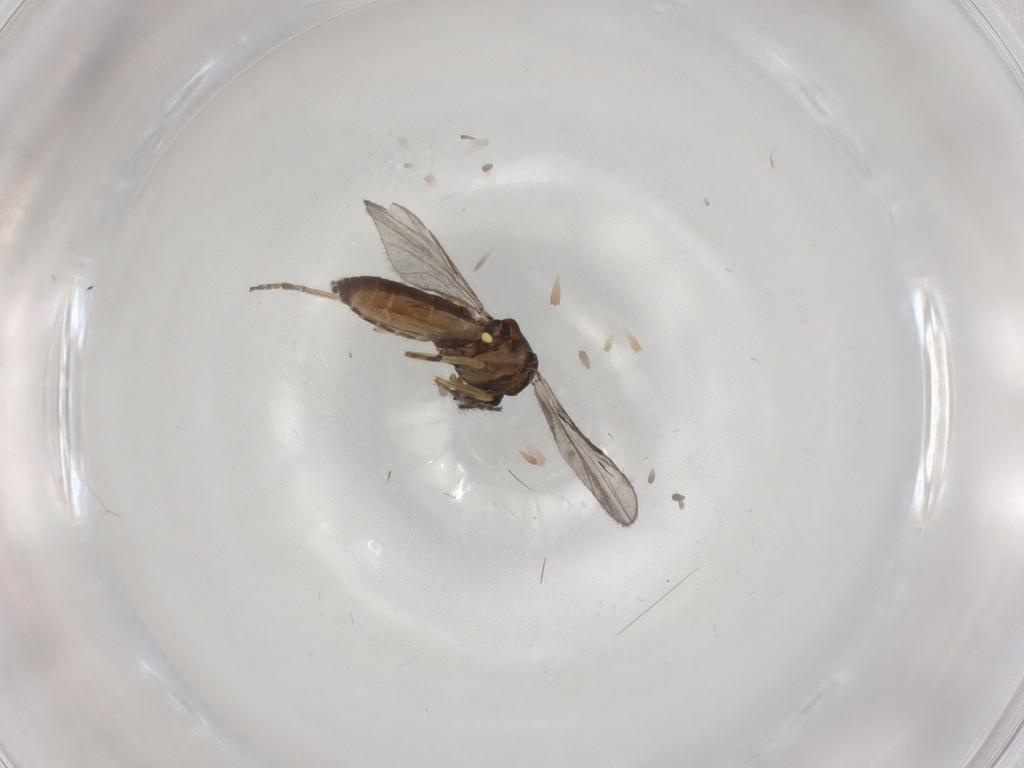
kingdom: Animalia
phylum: Arthropoda
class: Insecta
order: Diptera
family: Ceratopogonidae
